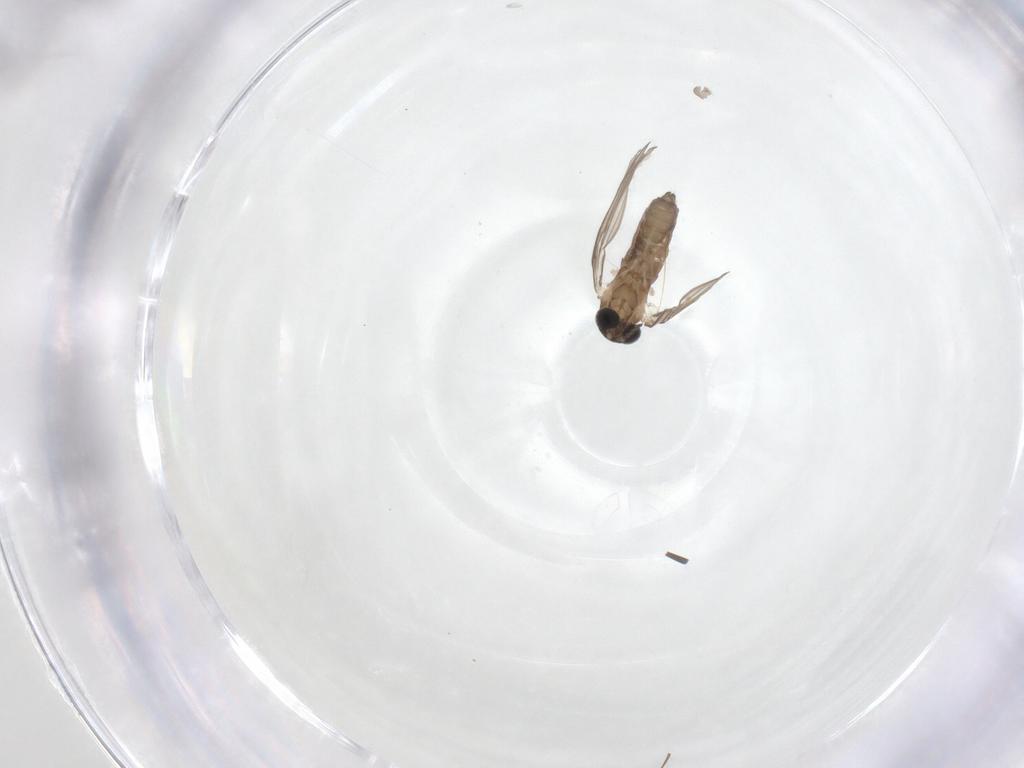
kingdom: Animalia
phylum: Arthropoda
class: Insecta
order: Diptera
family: Psychodidae
